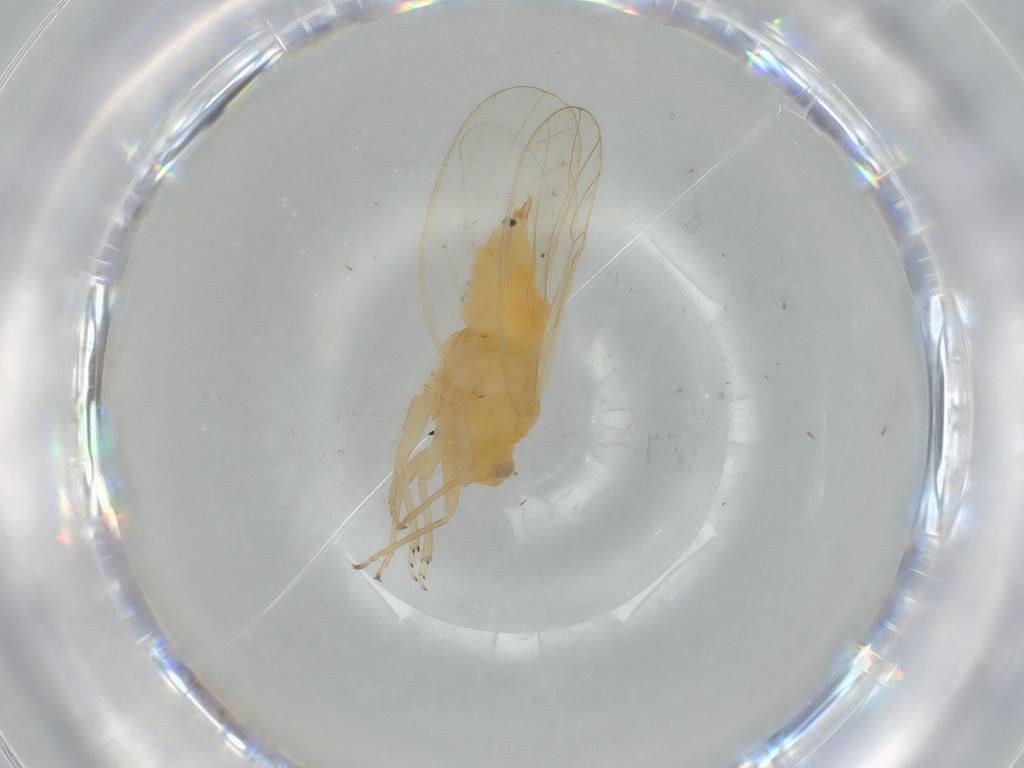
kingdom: Animalia
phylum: Arthropoda
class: Insecta
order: Hemiptera
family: Psyllidae
